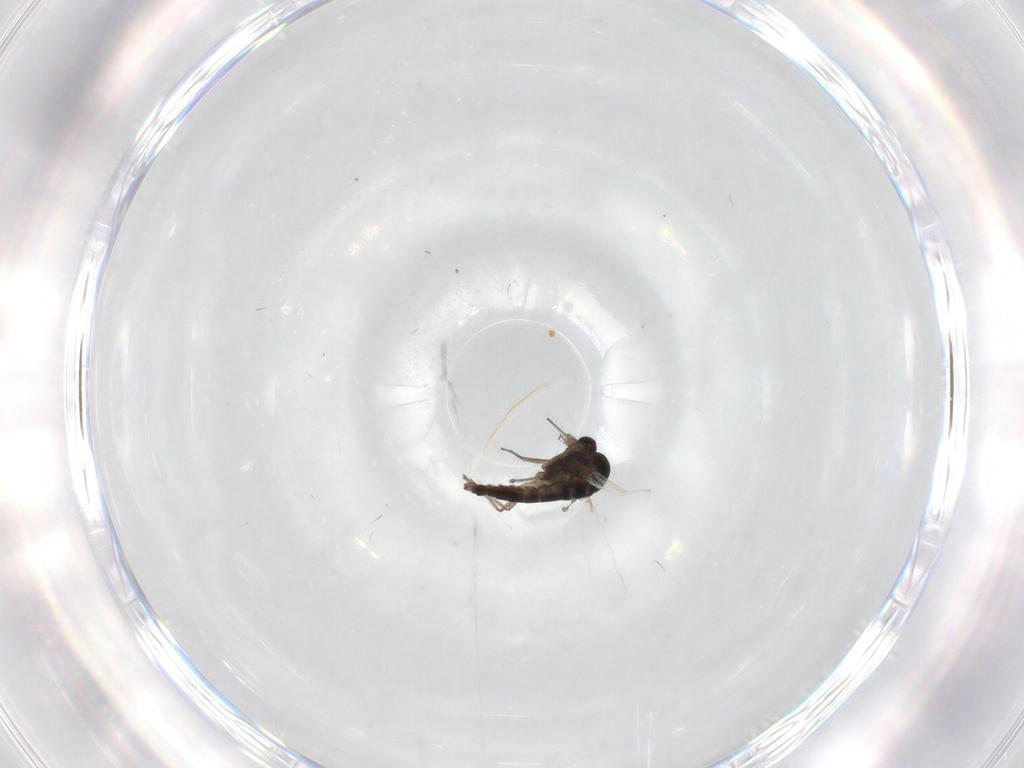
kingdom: Animalia
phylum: Arthropoda
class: Insecta
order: Diptera
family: Chironomidae
